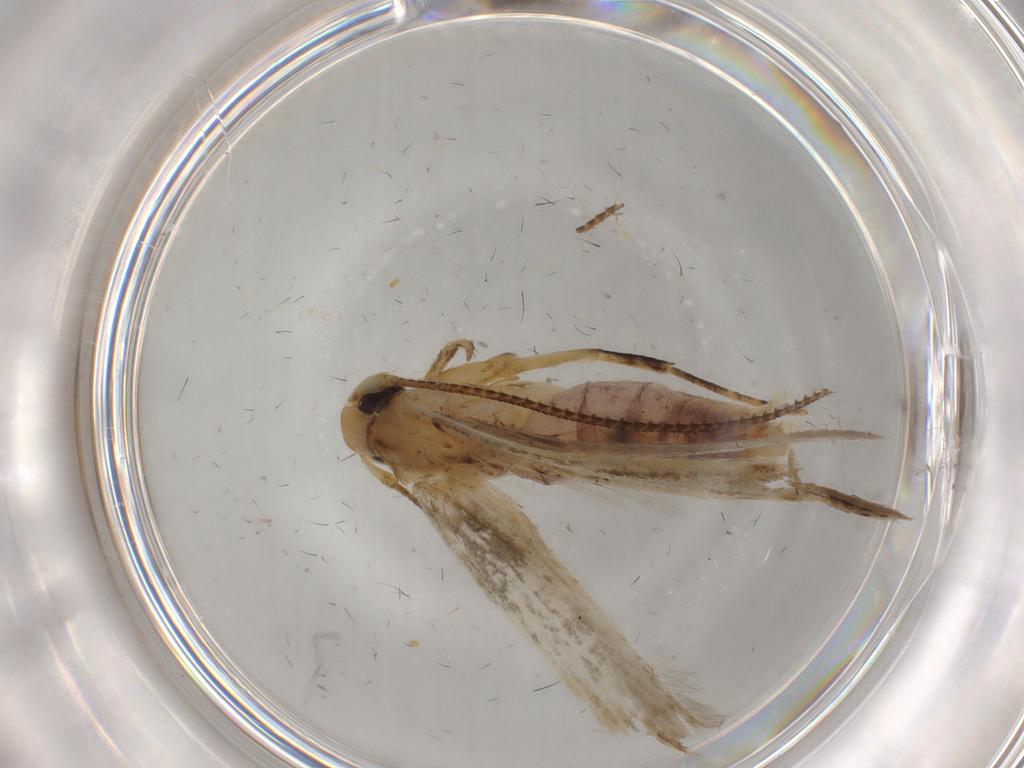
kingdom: Animalia
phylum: Arthropoda
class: Insecta
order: Lepidoptera
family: Opostegidae
